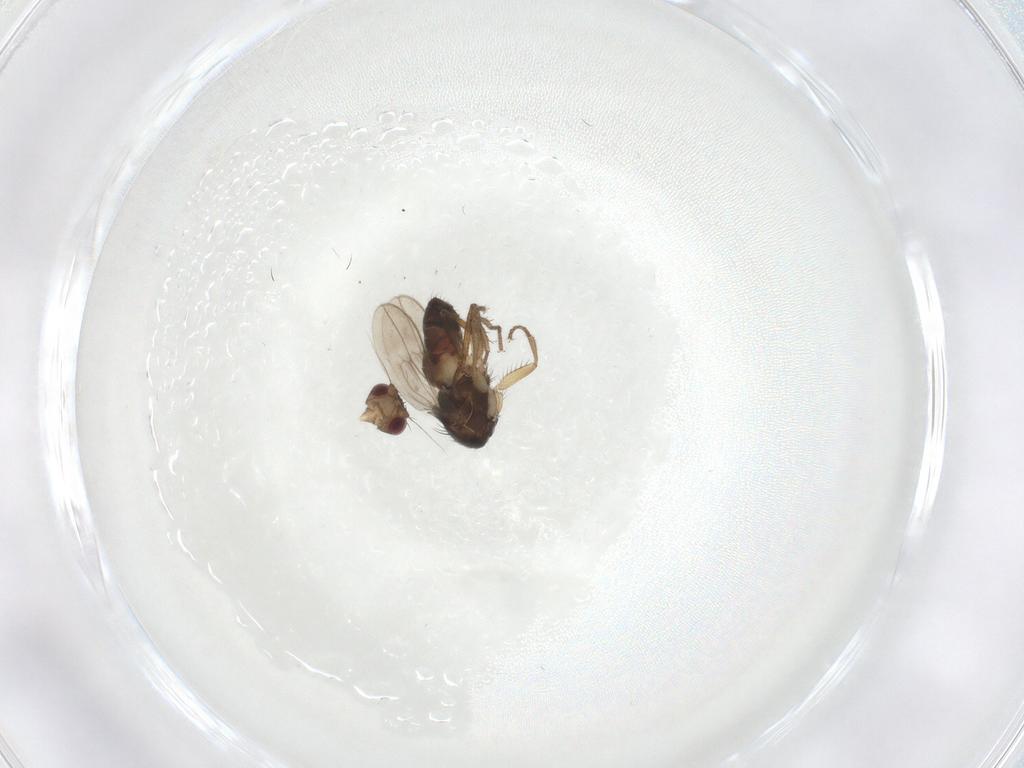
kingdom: Animalia
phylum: Arthropoda
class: Insecta
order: Diptera
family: Sphaeroceridae
